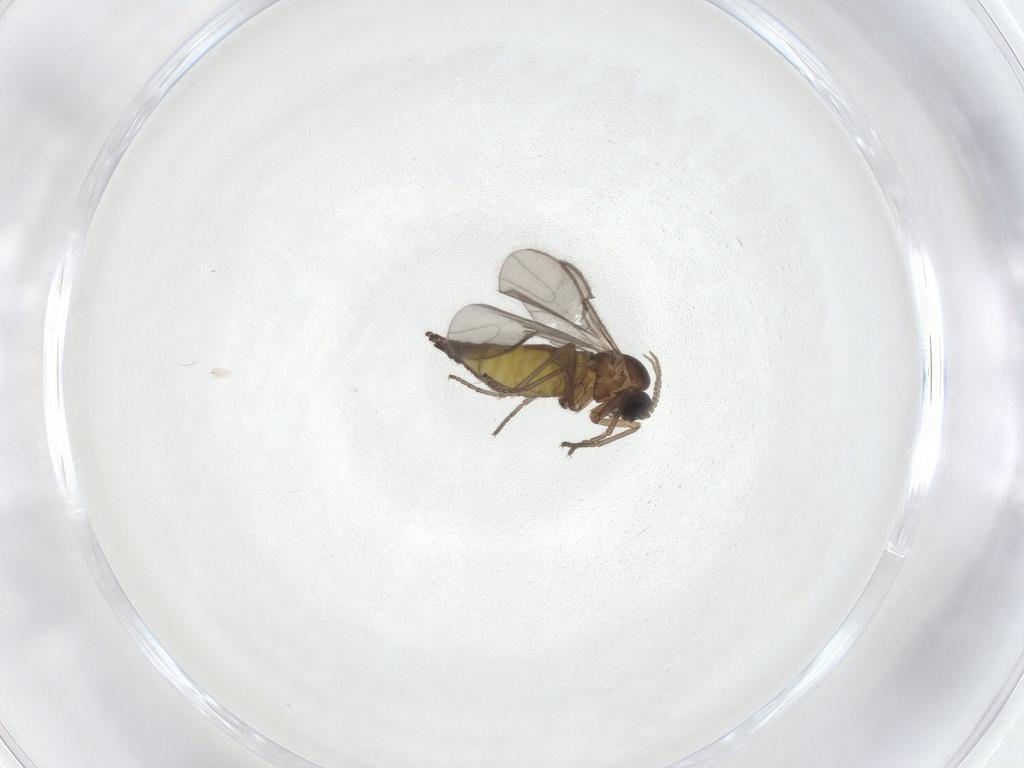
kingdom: Animalia
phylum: Arthropoda
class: Insecta
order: Diptera
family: Sciaridae
